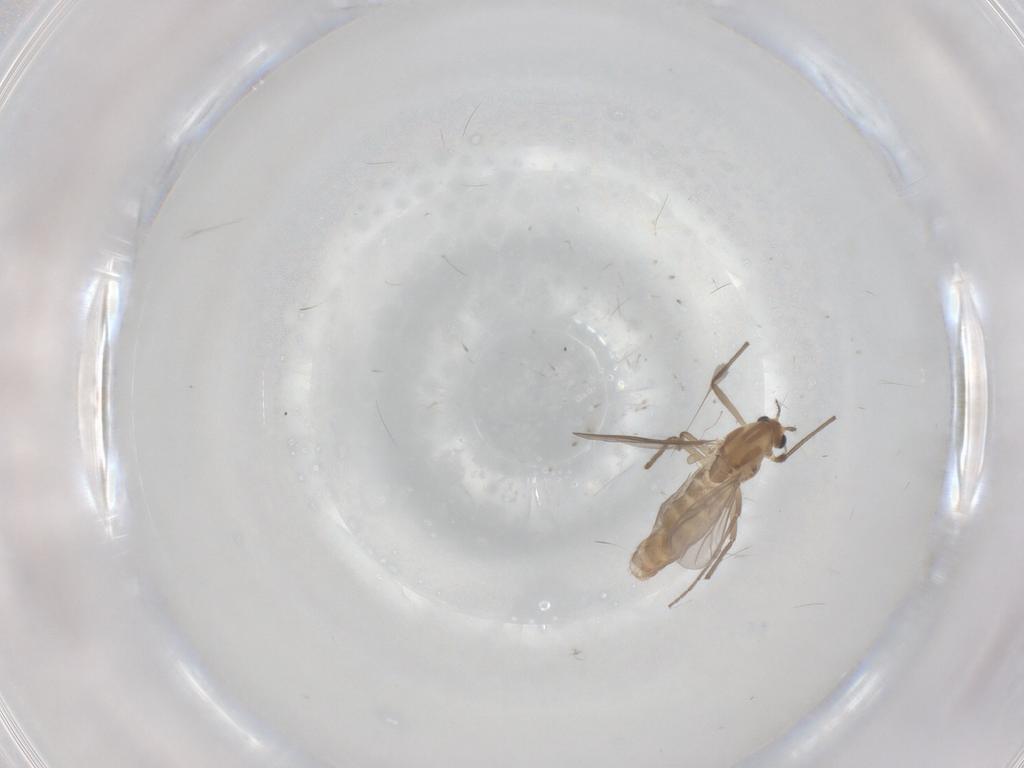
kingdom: Animalia
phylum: Arthropoda
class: Insecta
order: Diptera
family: Chironomidae
